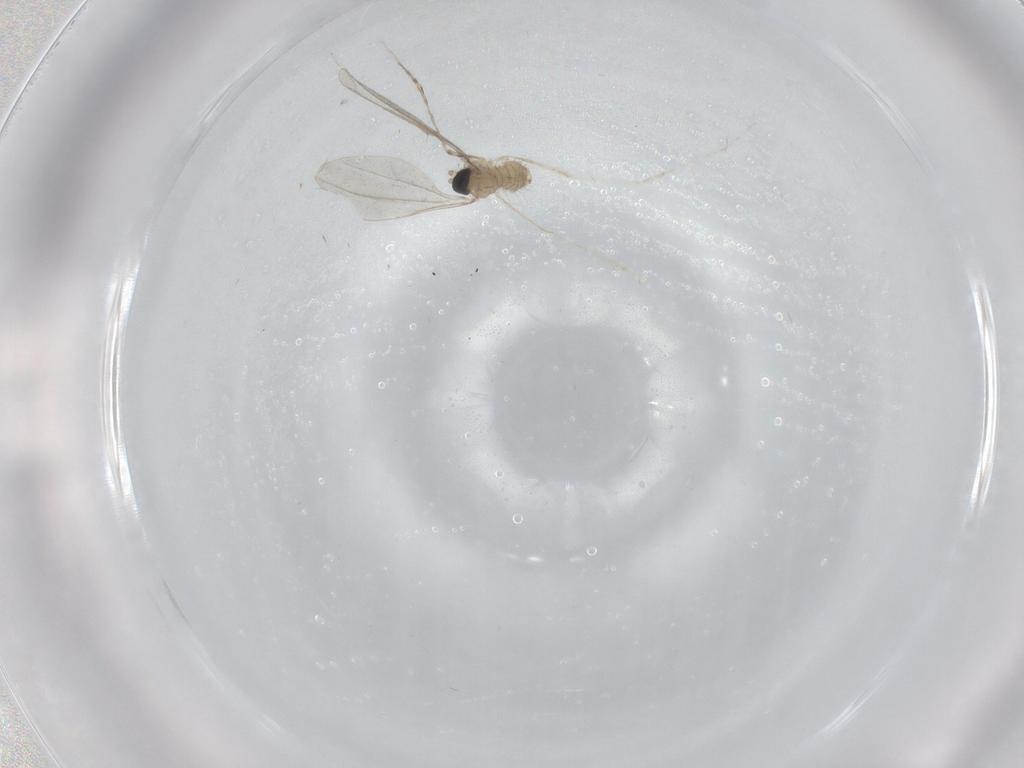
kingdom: Animalia
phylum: Arthropoda
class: Insecta
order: Diptera
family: Cecidomyiidae
